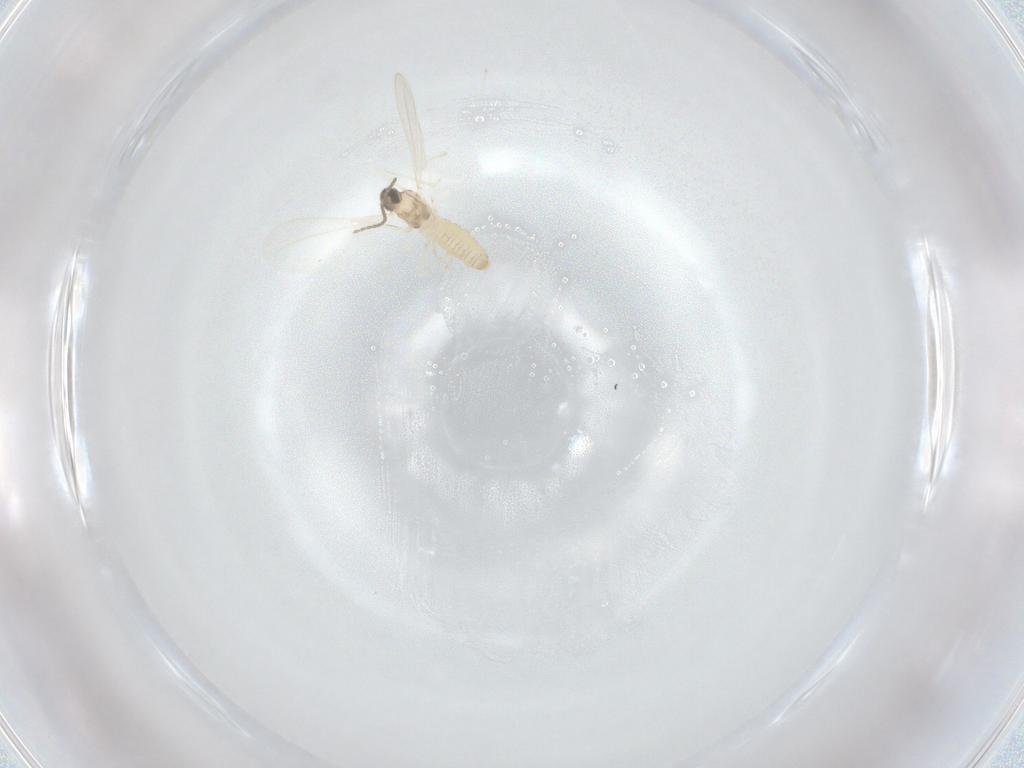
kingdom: Animalia
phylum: Arthropoda
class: Insecta
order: Diptera
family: Cecidomyiidae
